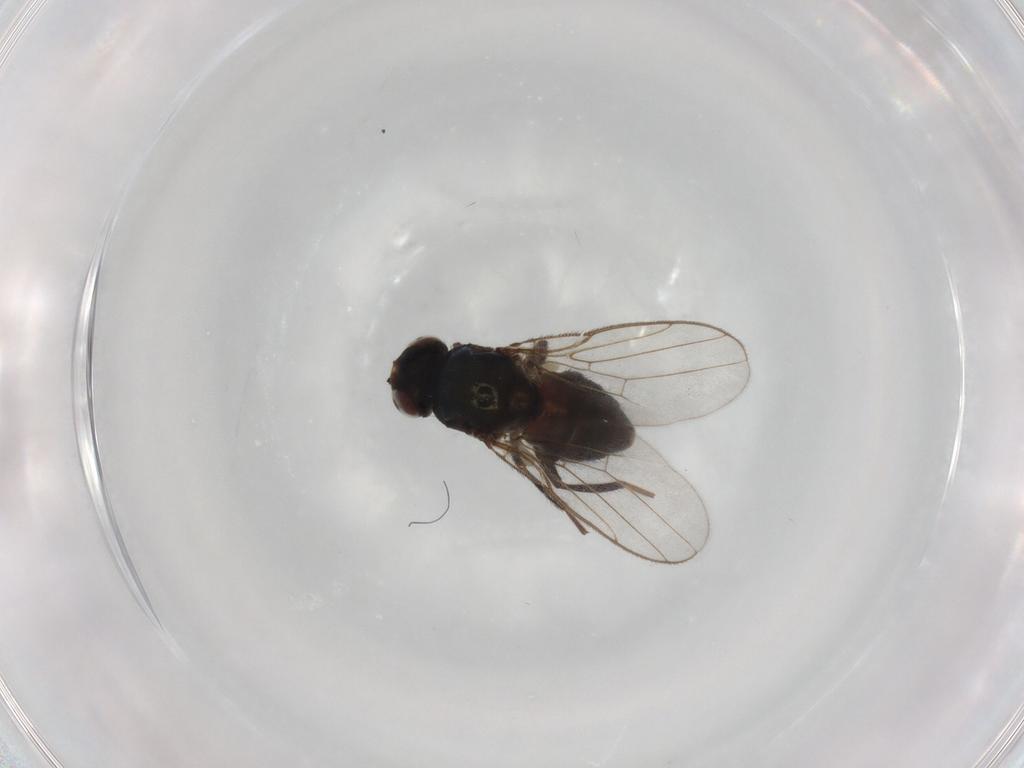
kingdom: Animalia
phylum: Arthropoda
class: Insecta
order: Diptera
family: Chloropidae
